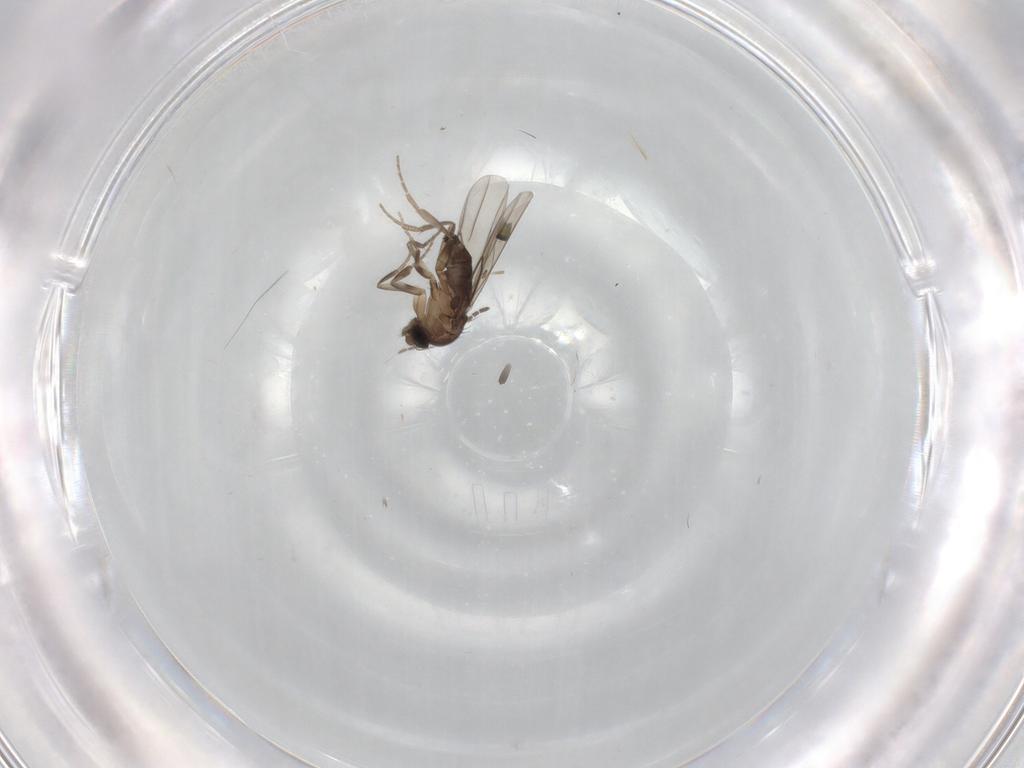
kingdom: Animalia
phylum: Arthropoda
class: Insecta
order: Diptera
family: Phoridae
